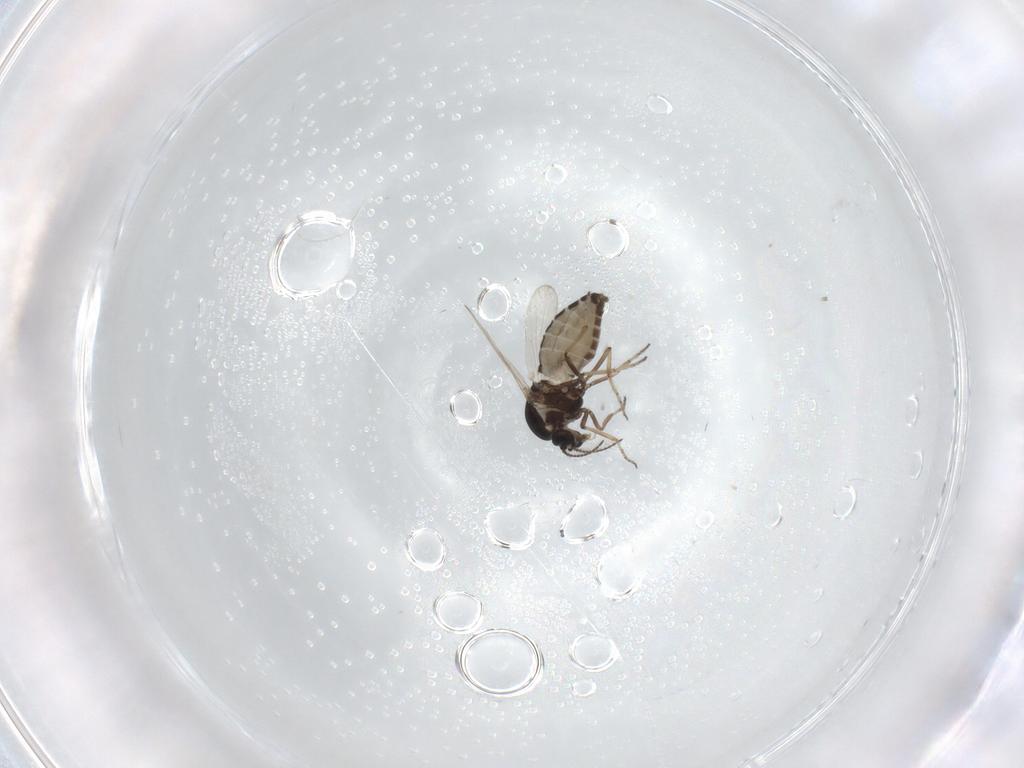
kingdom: Animalia
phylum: Arthropoda
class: Insecta
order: Diptera
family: Ceratopogonidae
